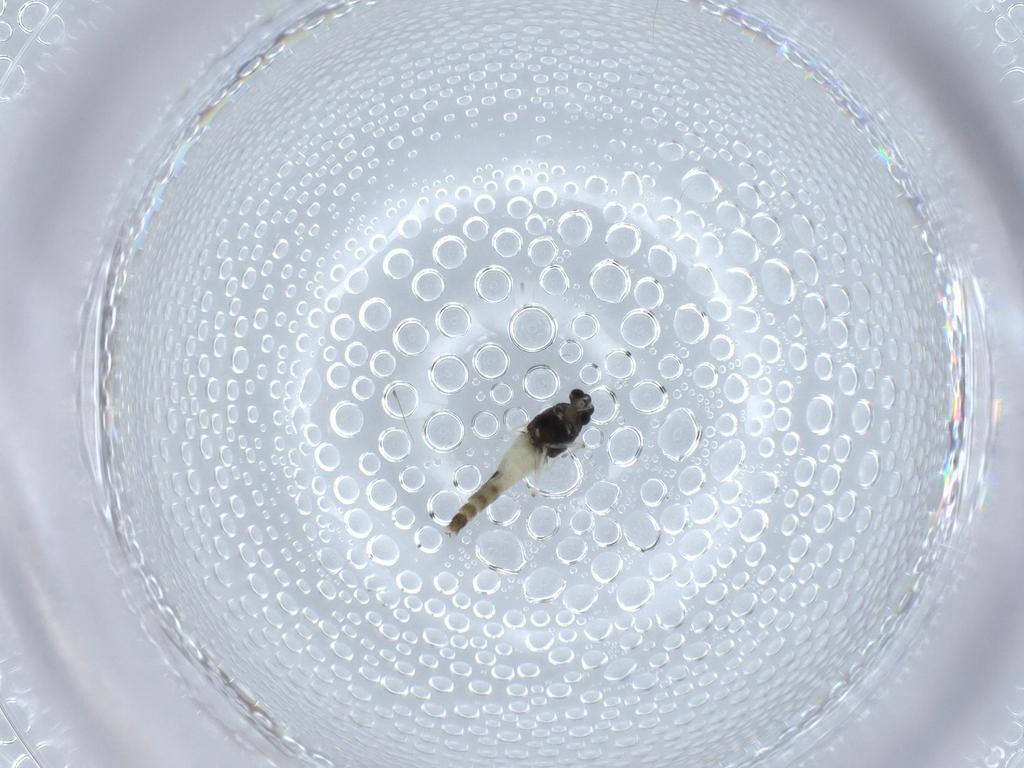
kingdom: Animalia
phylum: Arthropoda
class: Insecta
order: Diptera
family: Chironomidae
